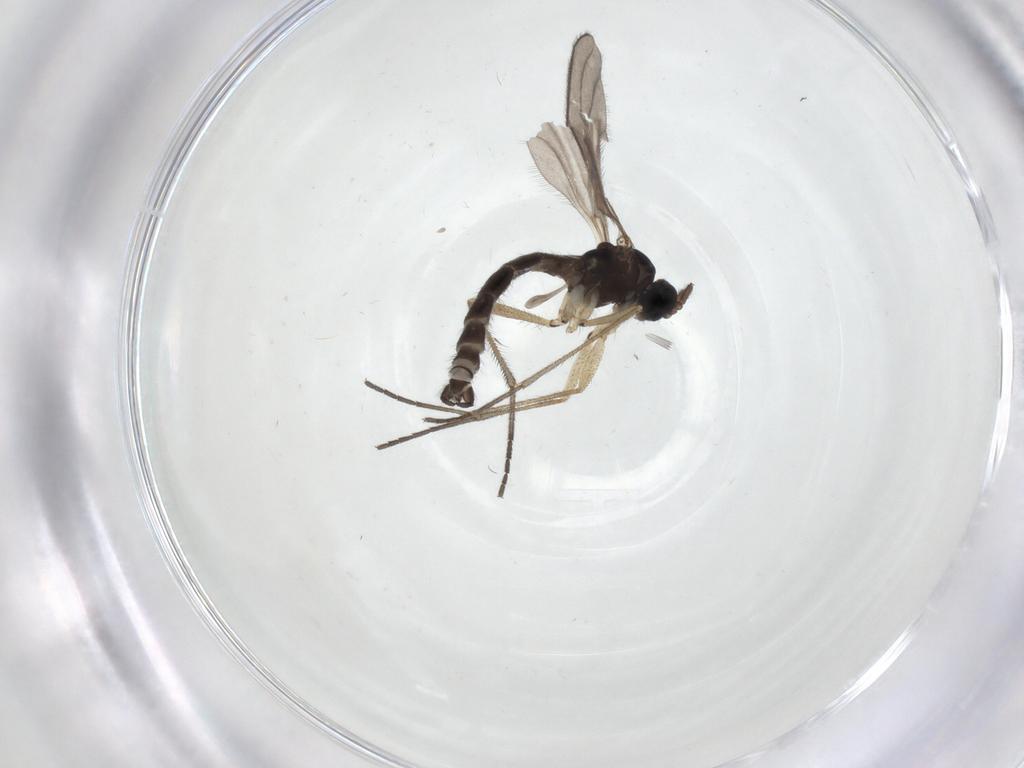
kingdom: Animalia
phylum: Arthropoda
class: Insecta
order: Diptera
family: Sciaridae
